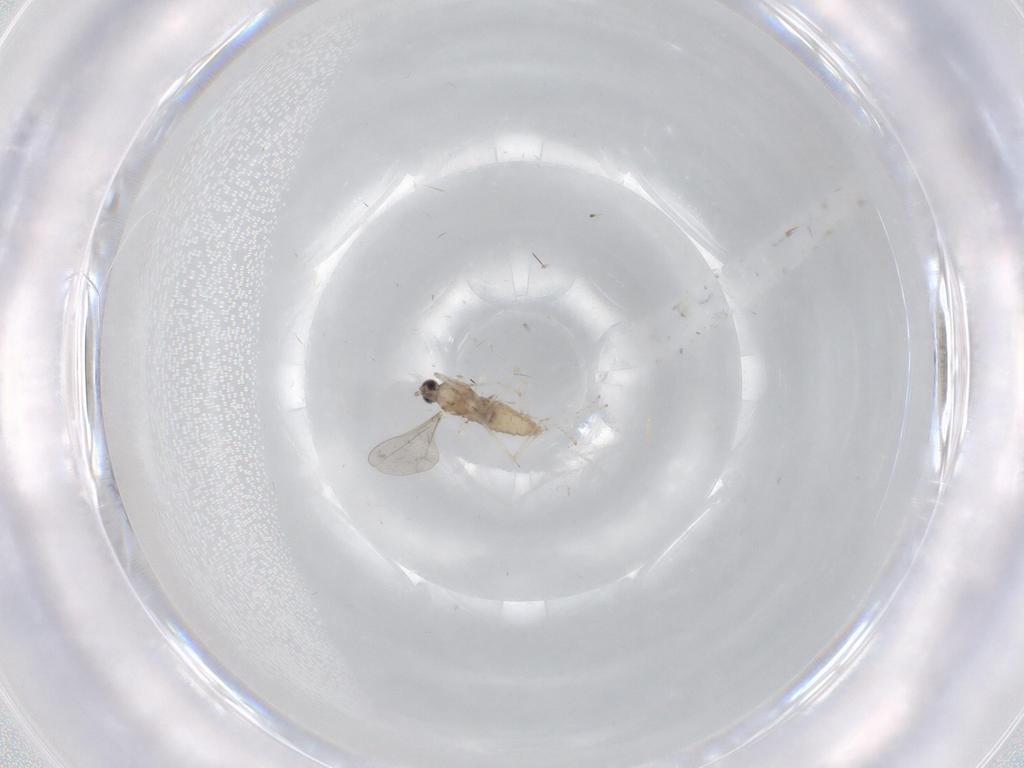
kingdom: Animalia
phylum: Arthropoda
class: Insecta
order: Diptera
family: Cecidomyiidae
